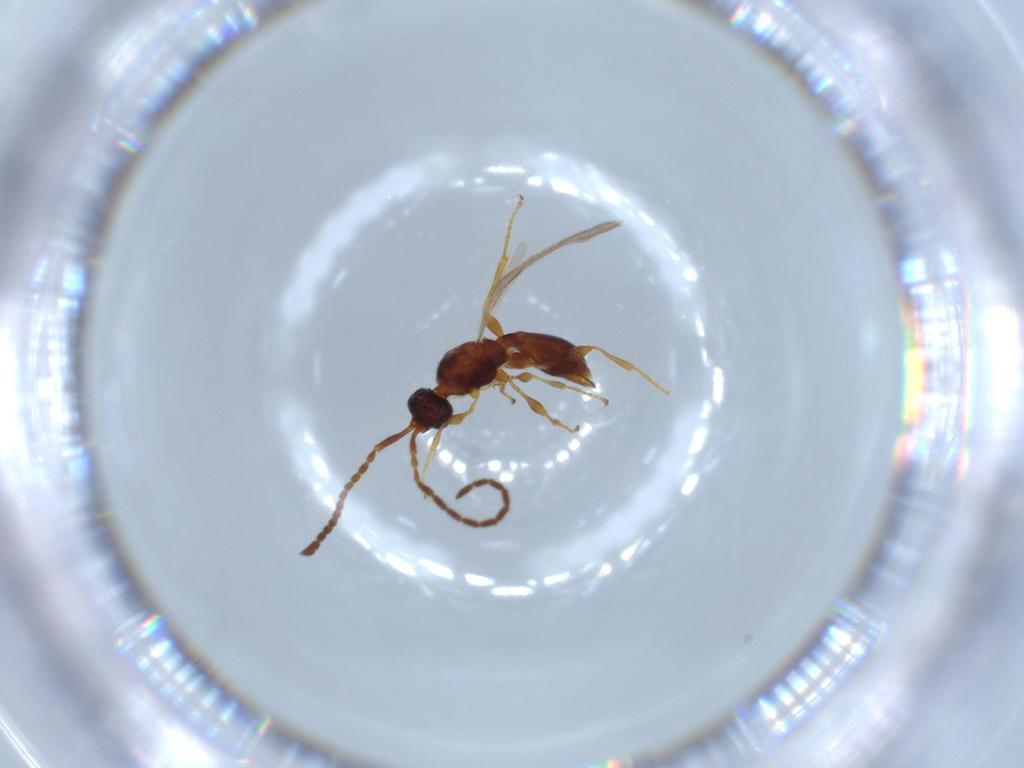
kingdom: Animalia
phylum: Arthropoda
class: Insecta
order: Hymenoptera
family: Diapriidae
